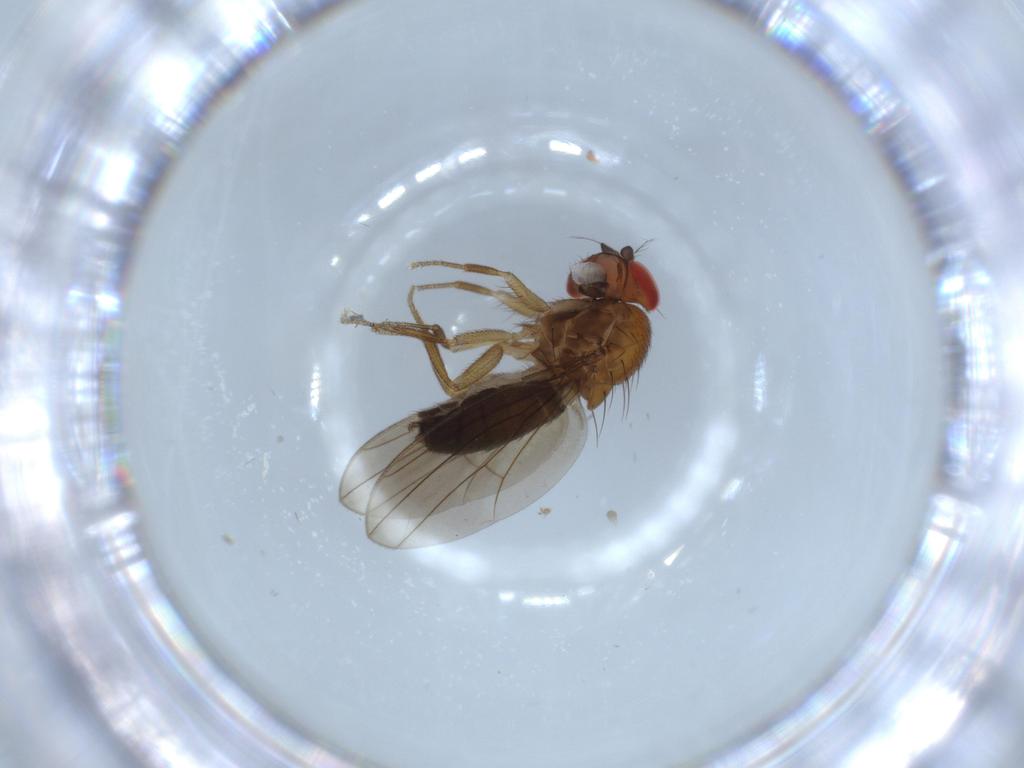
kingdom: Animalia
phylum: Arthropoda
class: Insecta
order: Diptera
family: Drosophilidae
